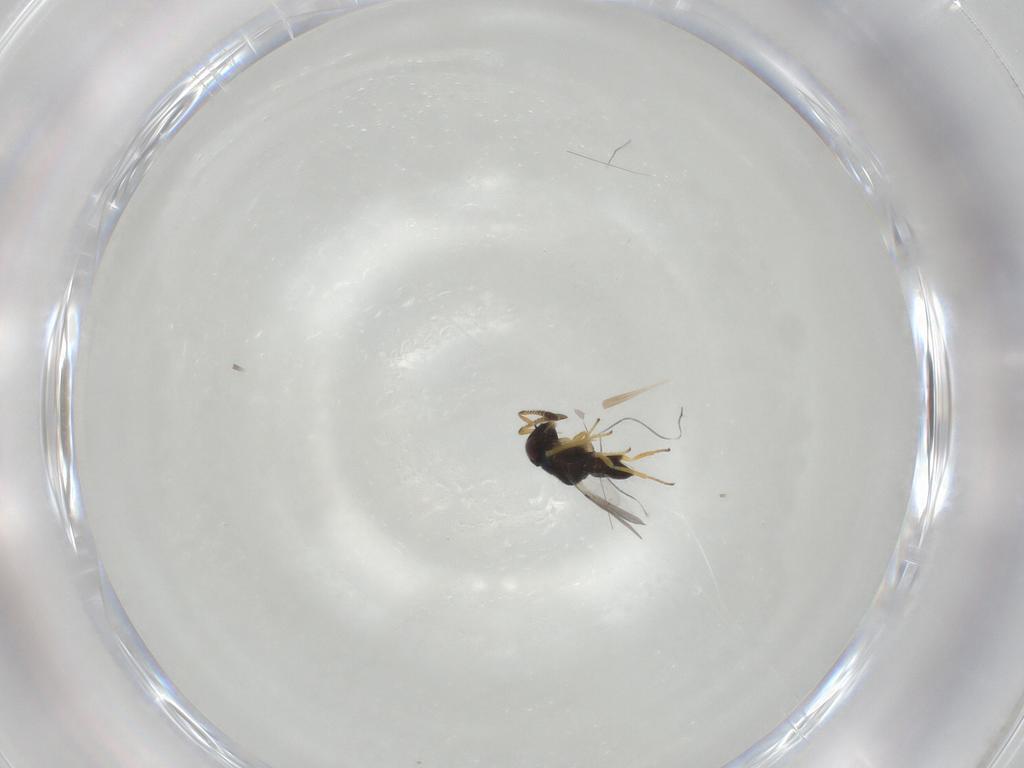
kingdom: Animalia
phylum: Arthropoda
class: Insecta
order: Hymenoptera
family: Encyrtidae
